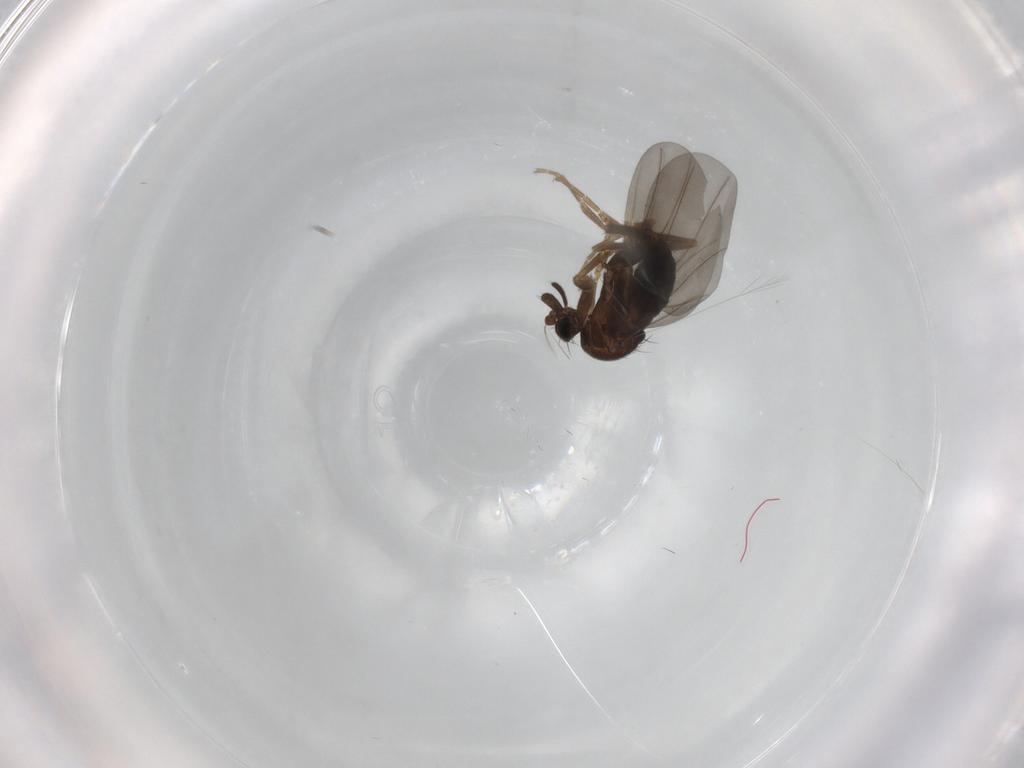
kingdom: Animalia
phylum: Arthropoda
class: Insecta
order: Diptera
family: Phoridae
